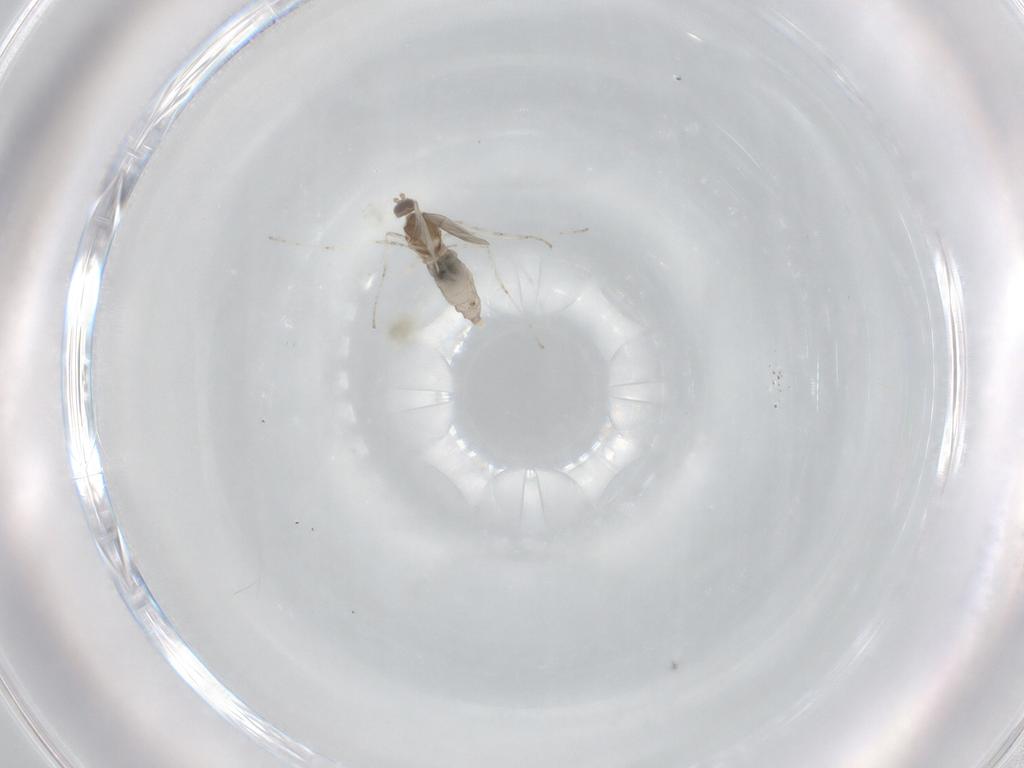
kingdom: Animalia
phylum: Arthropoda
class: Insecta
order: Diptera
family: Cecidomyiidae
